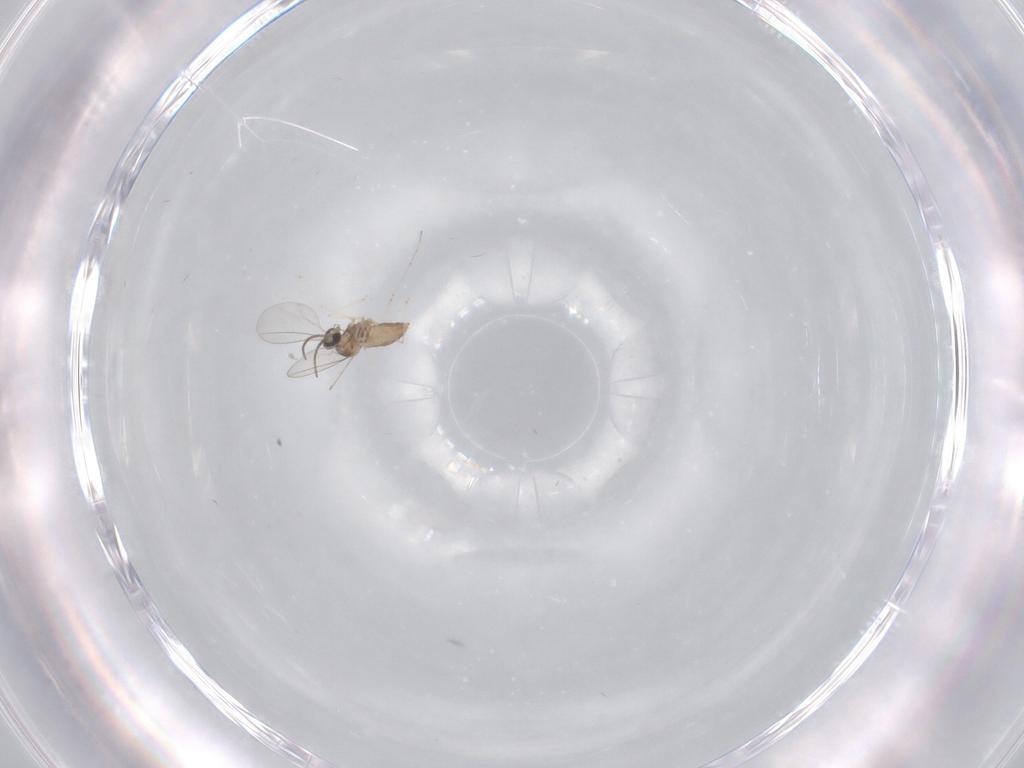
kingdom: Animalia
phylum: Arthropoda
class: Insecta
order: Diptera
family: Cecidomyiidae
